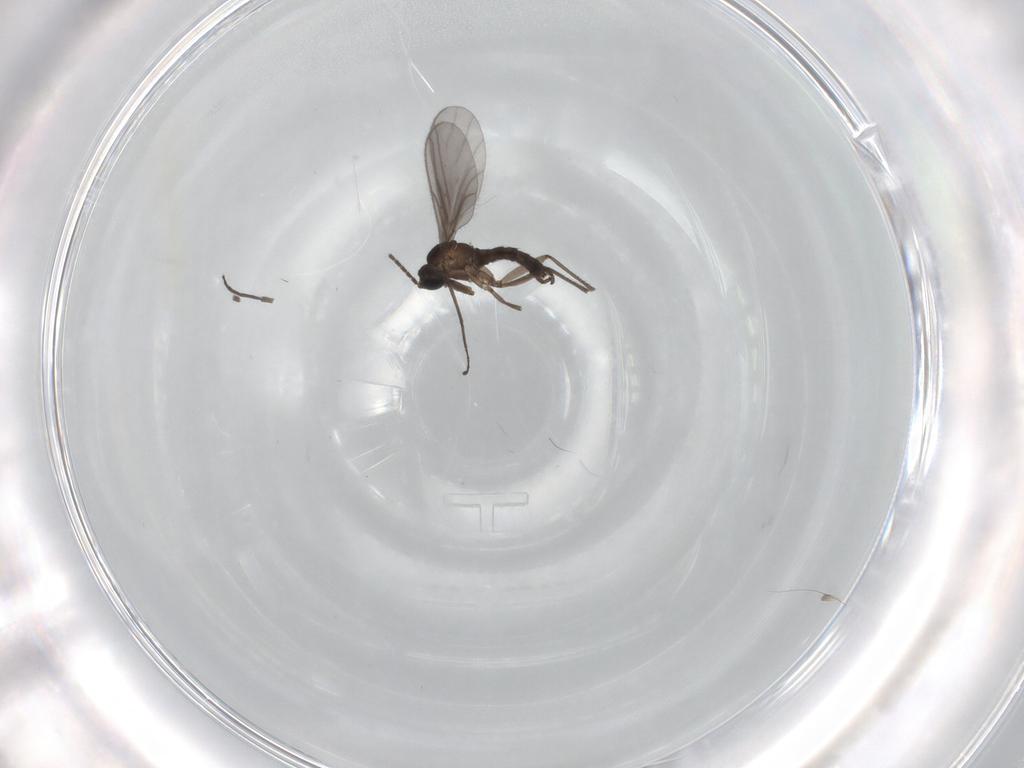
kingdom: Animalia
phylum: Arthropoda
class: Insecta
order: Diptera
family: Sciaridae
